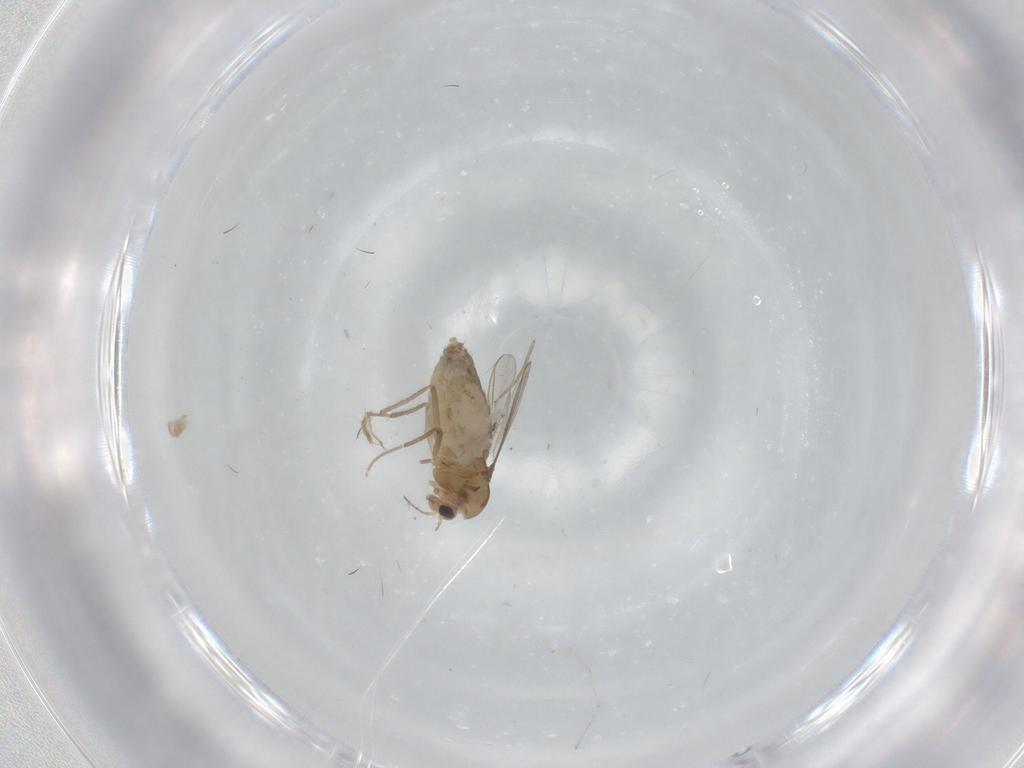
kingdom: Animalia
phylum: Arthropoda
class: Insecta
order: Diptera
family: Chironomidae
